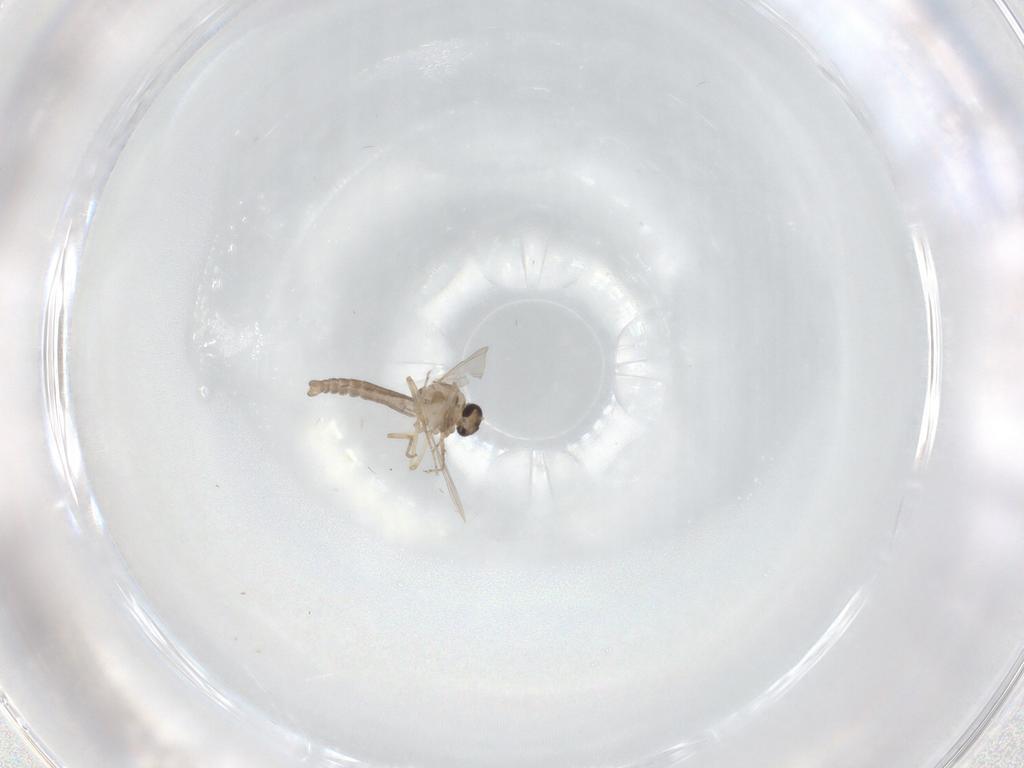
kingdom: Animalia
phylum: Arthropoda
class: Insecta
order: Diptera
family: Ceratopogonidae
